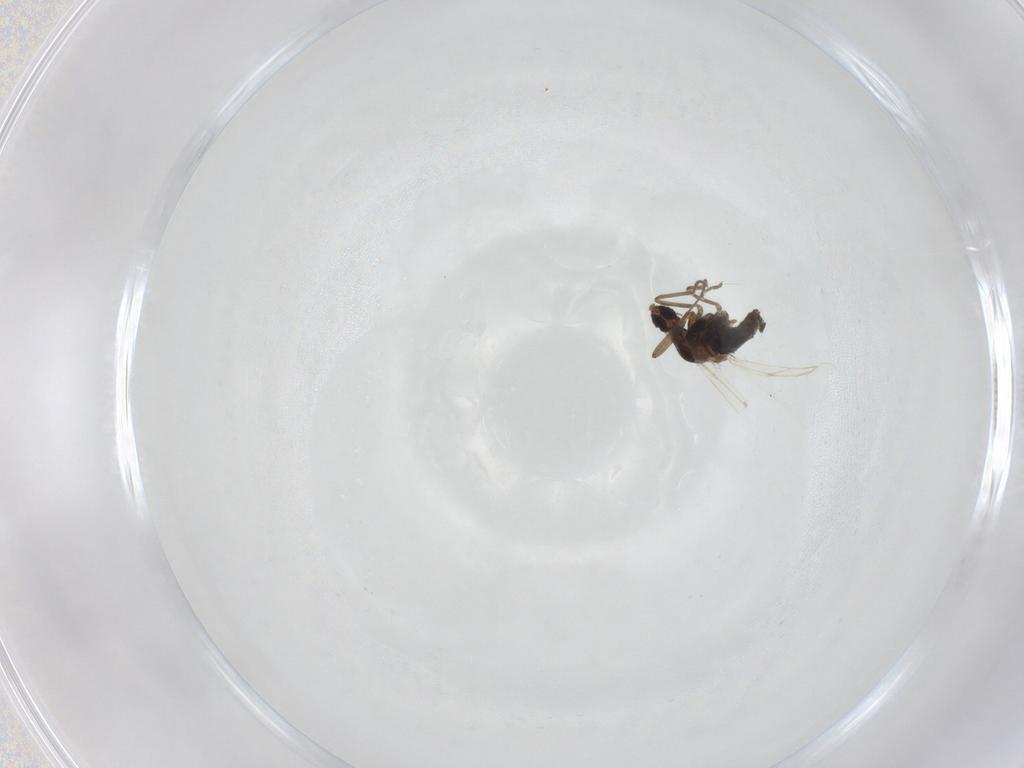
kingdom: Animalia
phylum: Arthropoda
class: Insecta
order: Diptera
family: Cecidomyiidae
